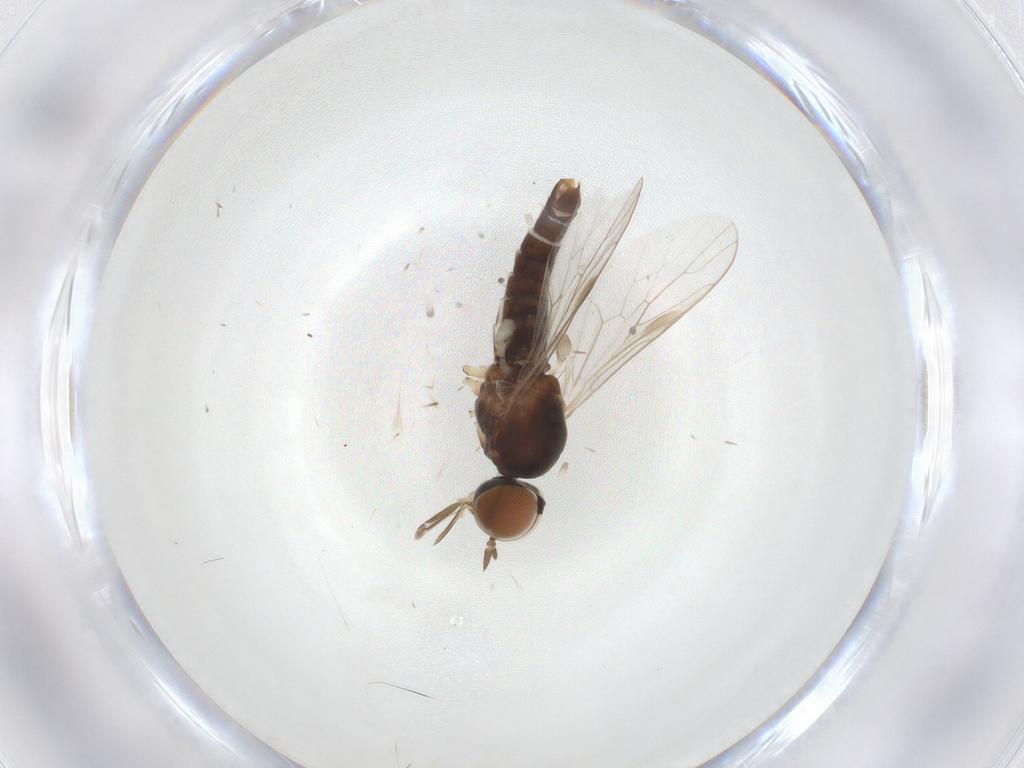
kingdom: Animalia
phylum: Arthropoda
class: Insecta
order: Diptera
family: Scenopinidae
